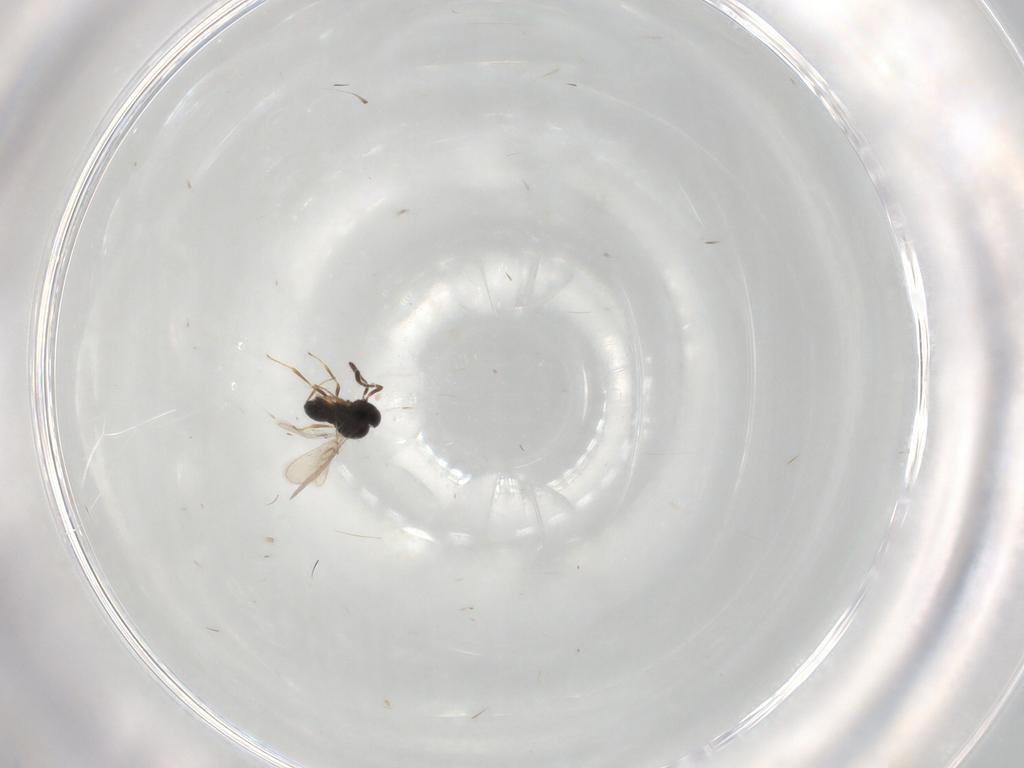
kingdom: Animalia
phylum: Arthropoda
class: Insecta
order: Hymenoptera
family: Scelionidae
